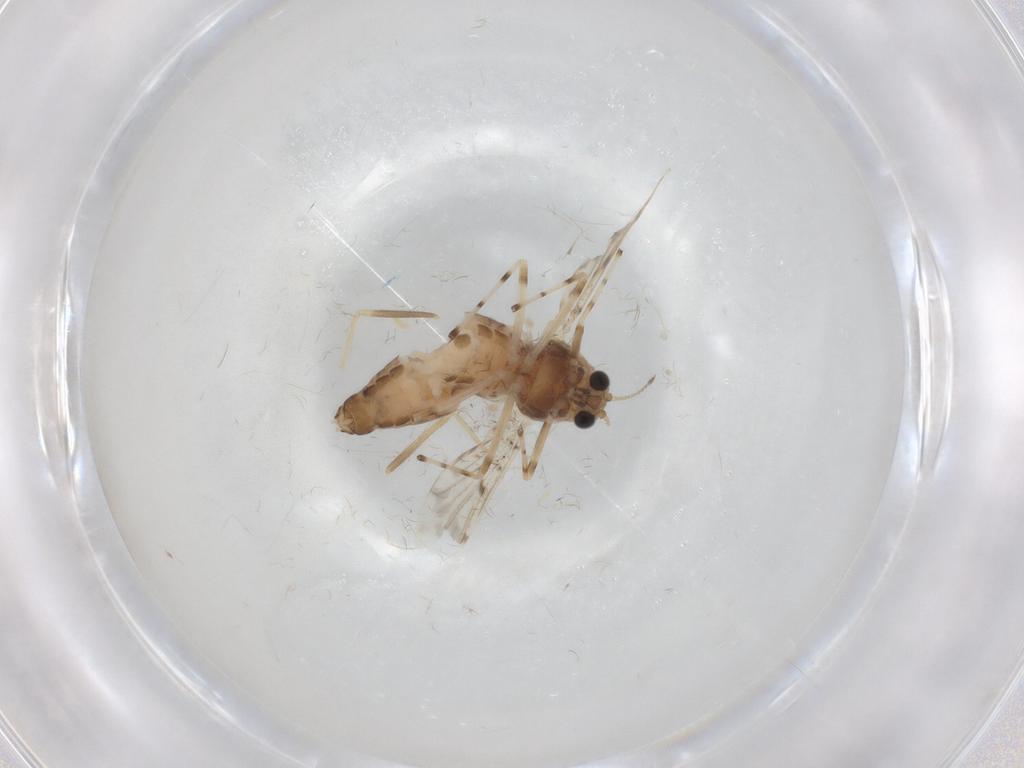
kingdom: Animalia
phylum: Arthropoda
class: Insecta
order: Diptera
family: Chironomidae
